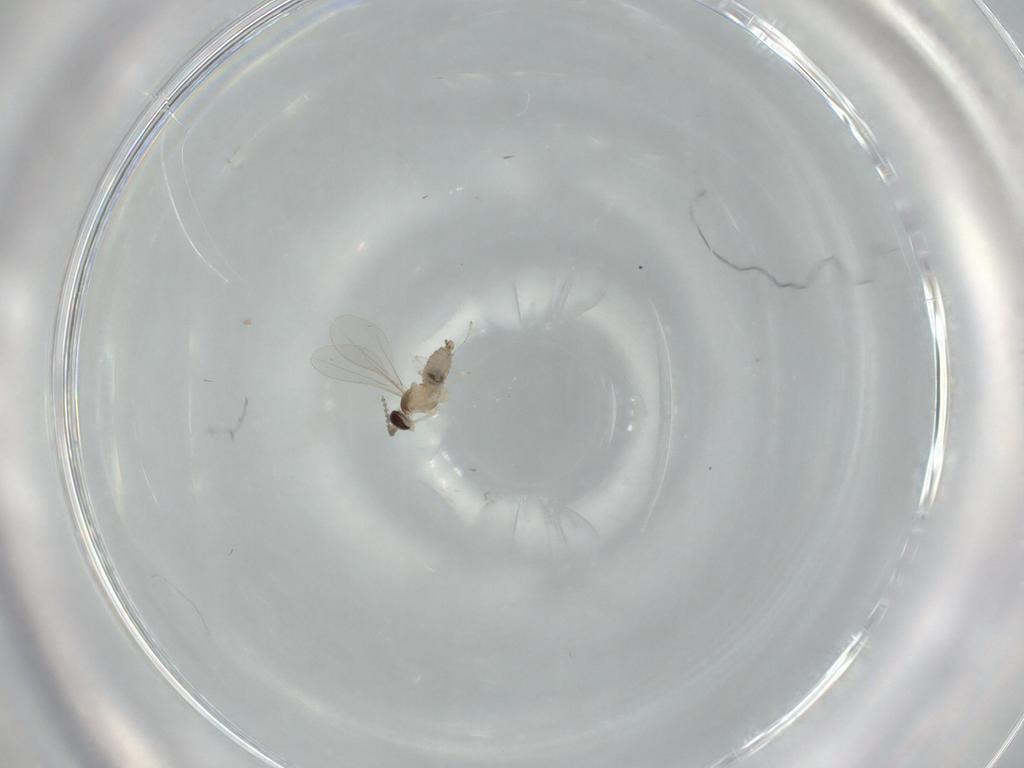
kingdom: Animalia
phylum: Arthropoda
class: Insecta
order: Diptera
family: Cecidomyiidae
